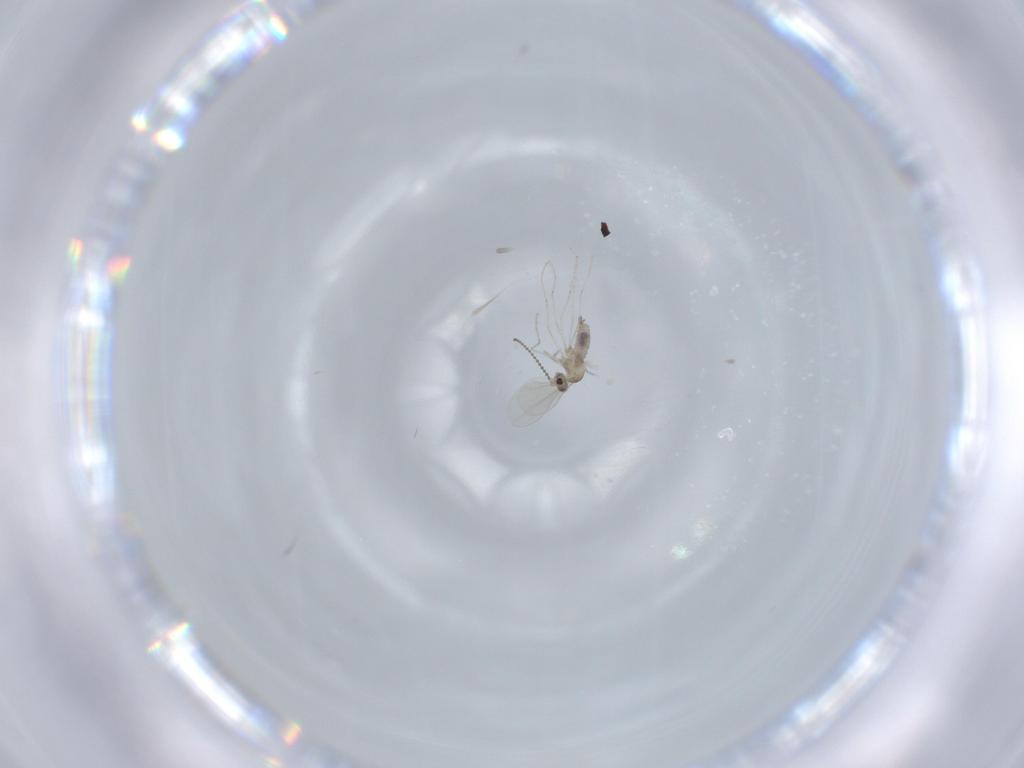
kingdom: Animalia
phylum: Arthropoda
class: Insecta
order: Diptera
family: Cecidomyiidae
